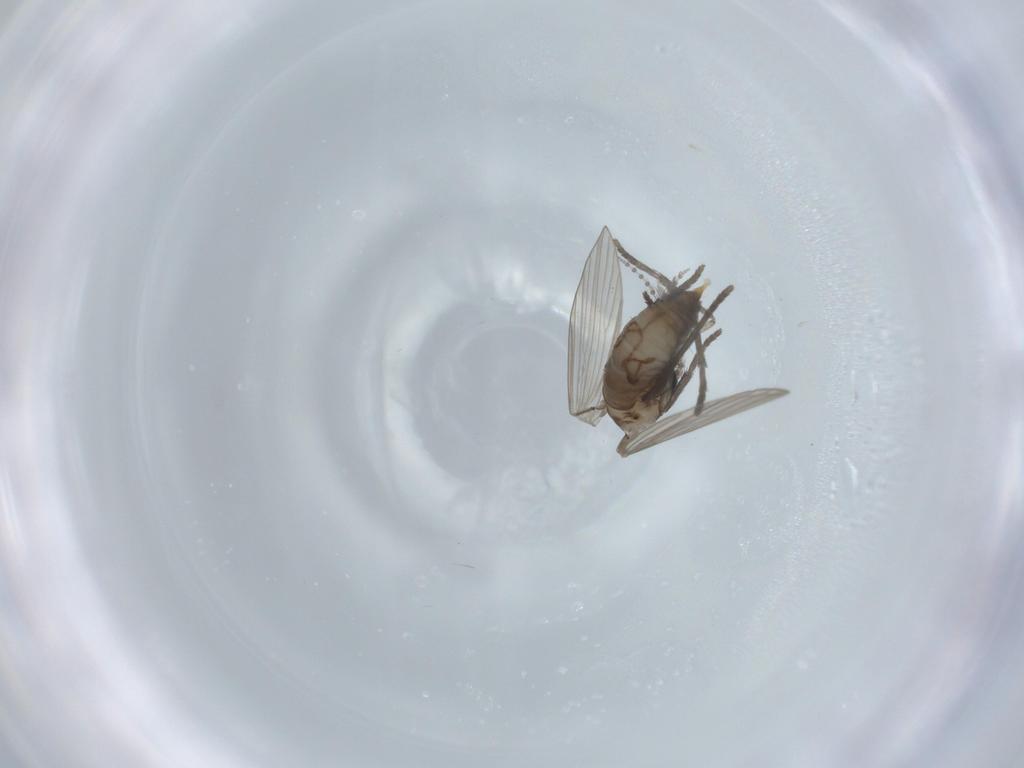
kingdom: Animalia
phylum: Arthropoda
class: Insecta
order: Diptera
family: Psychodidae
